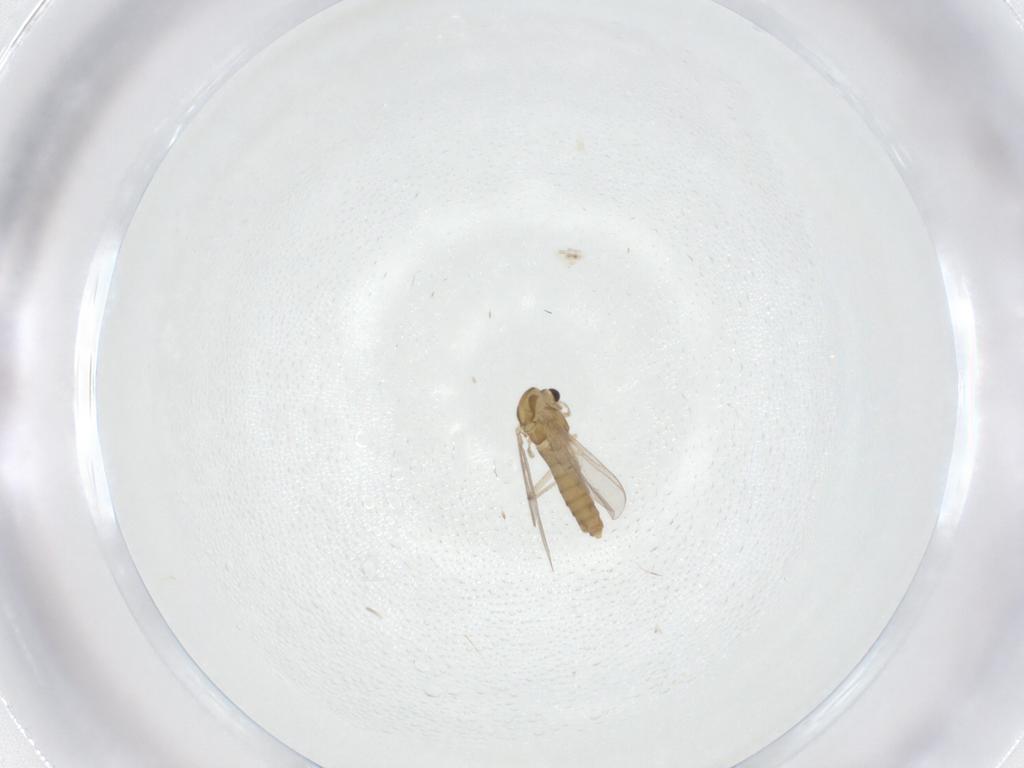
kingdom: Animalia
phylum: Arthropoda
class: Insecta
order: Diptera
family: Chironomidae
